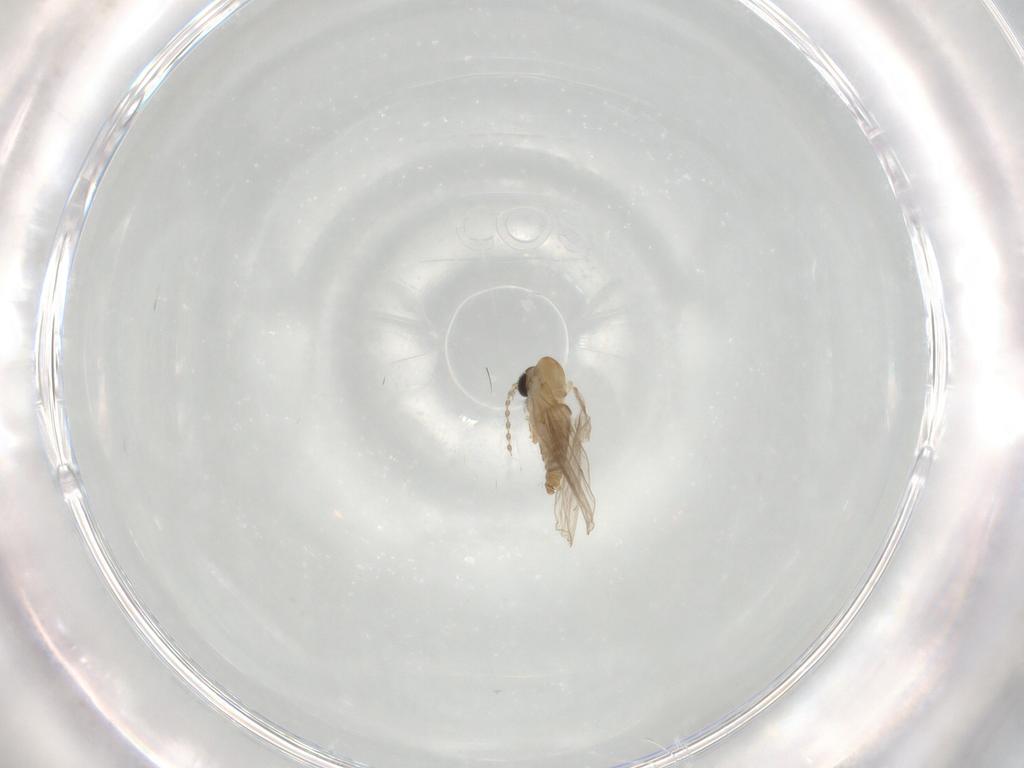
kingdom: Animalia
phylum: Arthropoda
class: Insecta
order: Diptera
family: Psychodidae
